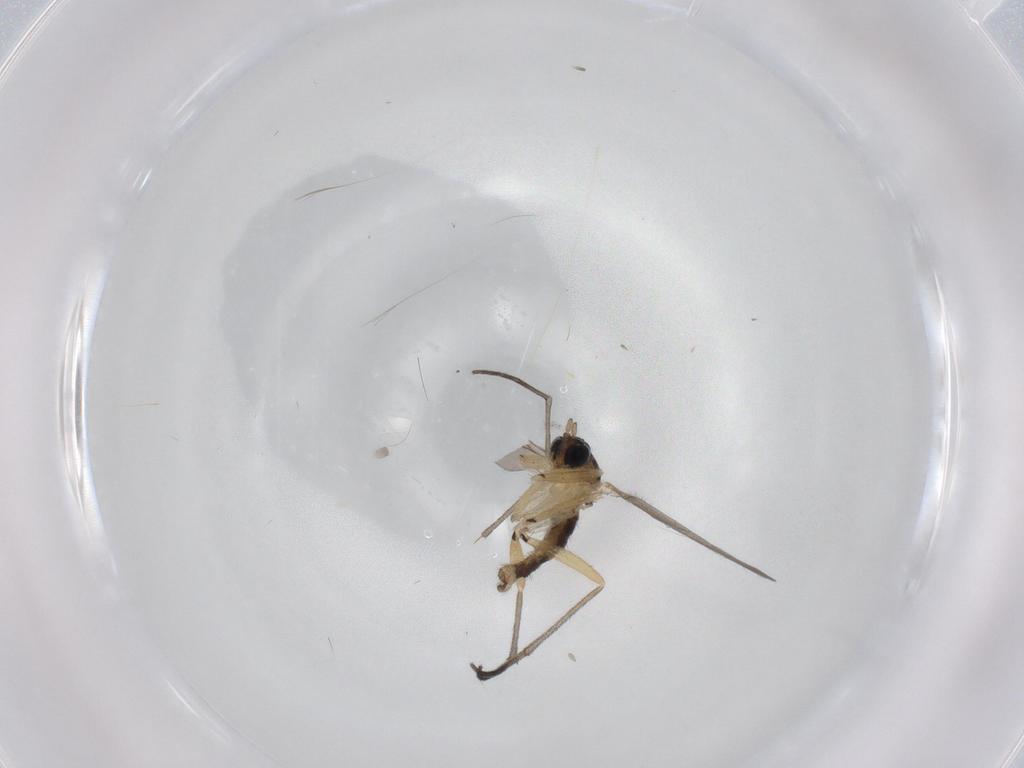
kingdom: Animalia
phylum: Arthropoda
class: Insecta
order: Diptera
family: Sciaridae
